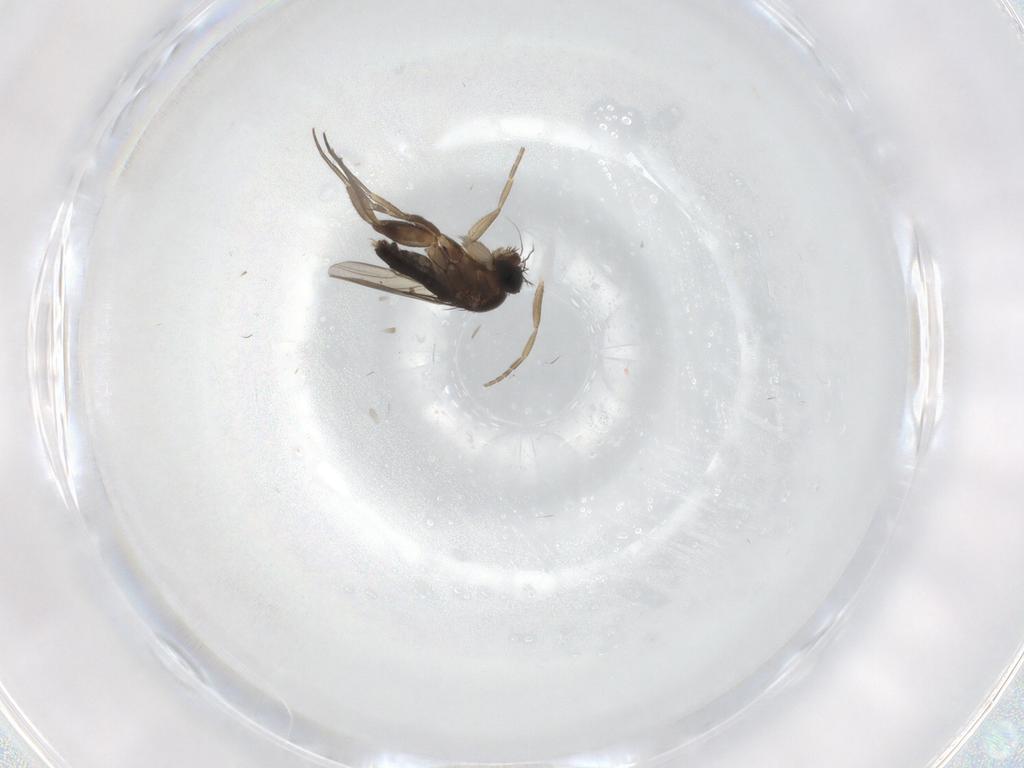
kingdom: Animalia
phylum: Arthropoda
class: Insecta
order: Diptera
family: Phoridae
